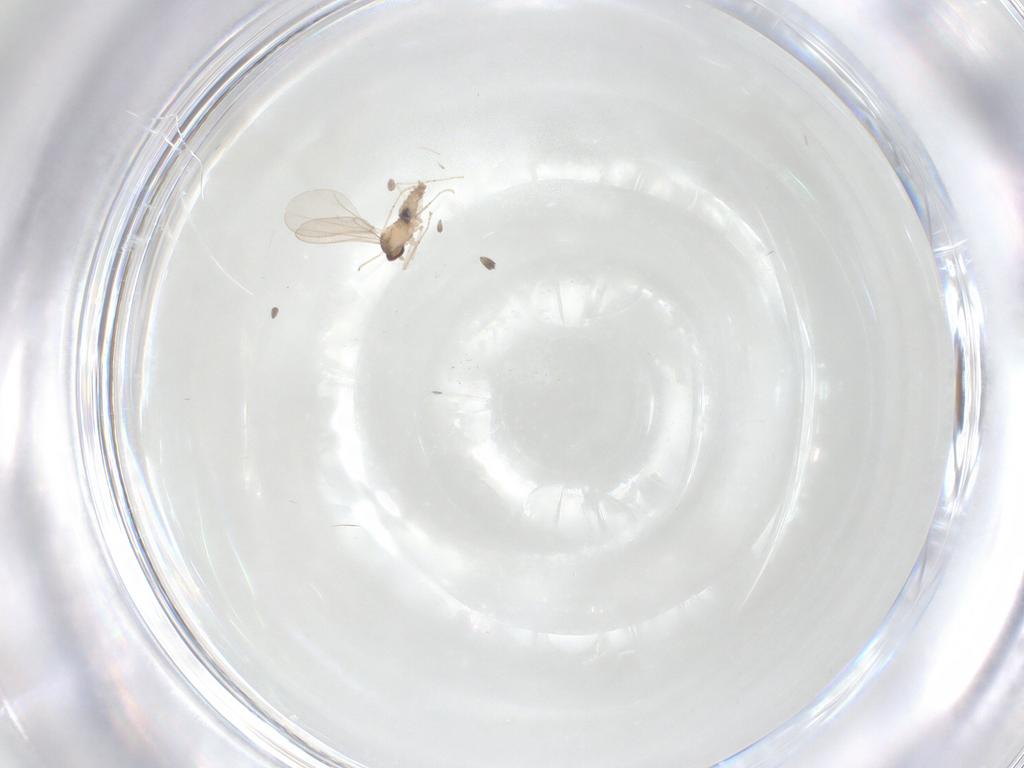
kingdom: Animalia
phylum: Arthropoda
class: Insecta
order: Diptera
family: Cecidomyiidae
